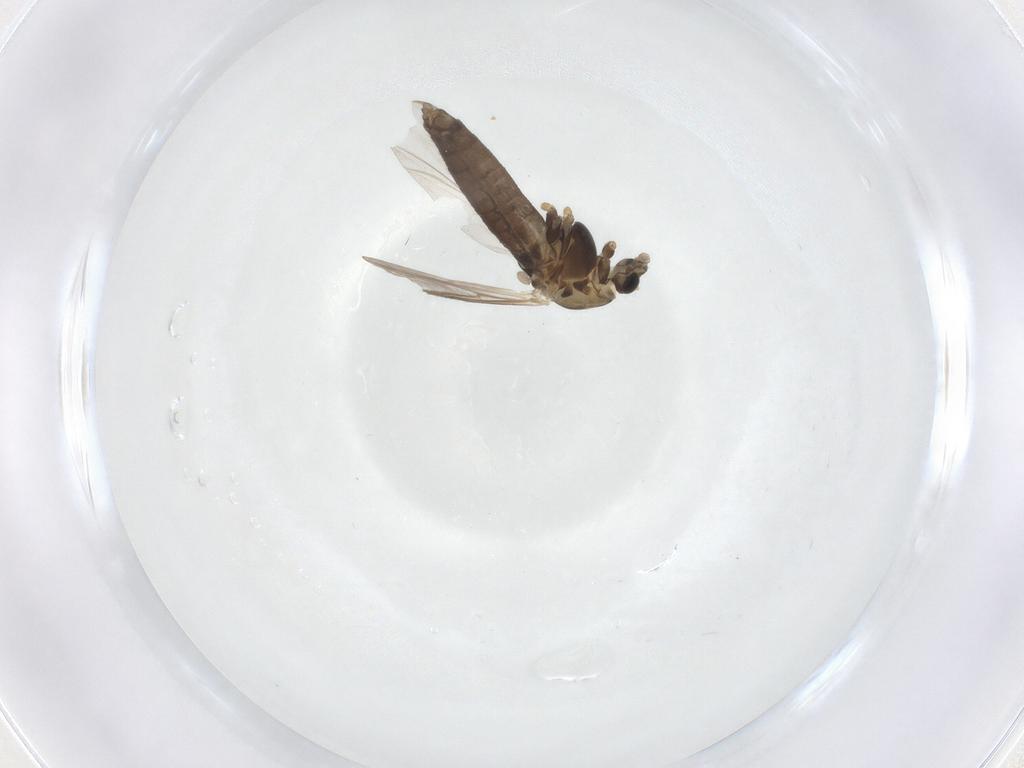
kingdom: Animalia
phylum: Arthropoda
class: Insecta
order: Diptera
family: Chironomidae
